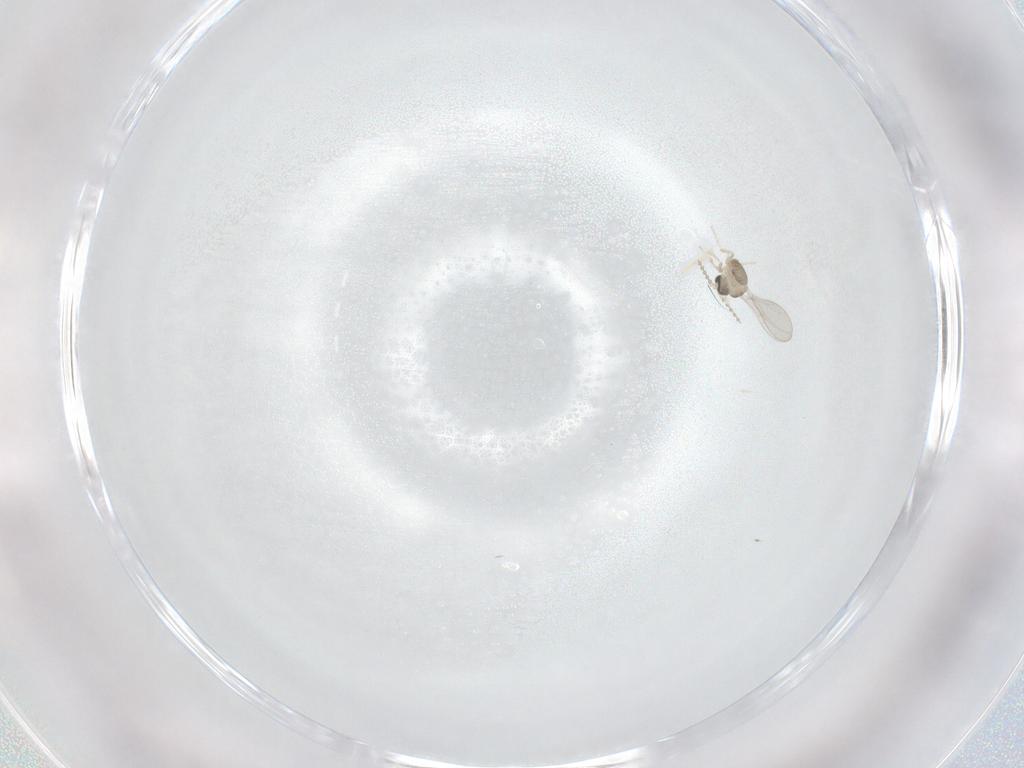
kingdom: Animalia
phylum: Arthropoda
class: Insecta
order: Diptera
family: Cecidomyiidae
